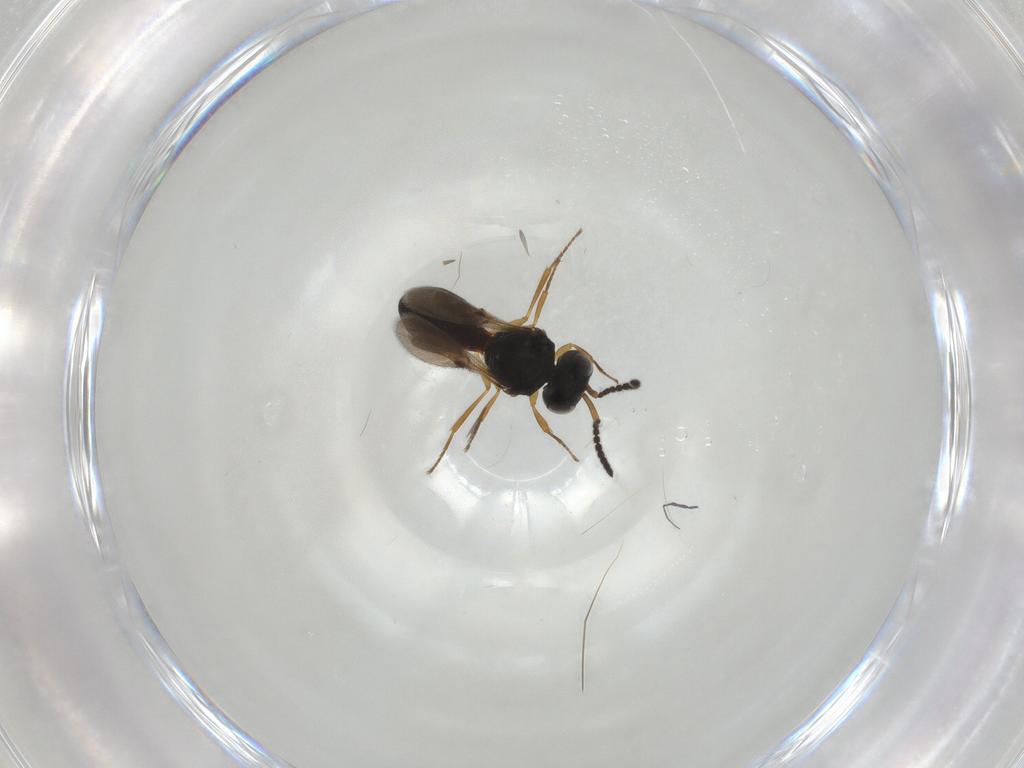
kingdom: Animalia
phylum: Arthropoda
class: Insecta
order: Hymenoptera
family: Scelionidae
